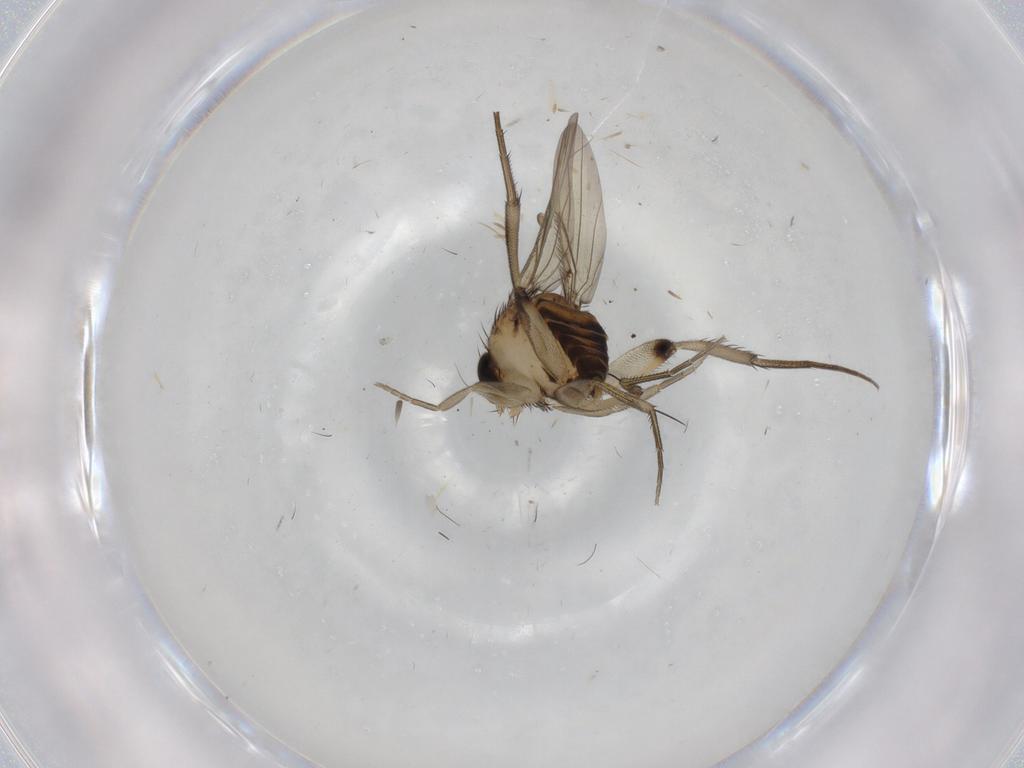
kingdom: Animalia
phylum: Arthropoda
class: Insecta
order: Diptera
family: Phoridae
